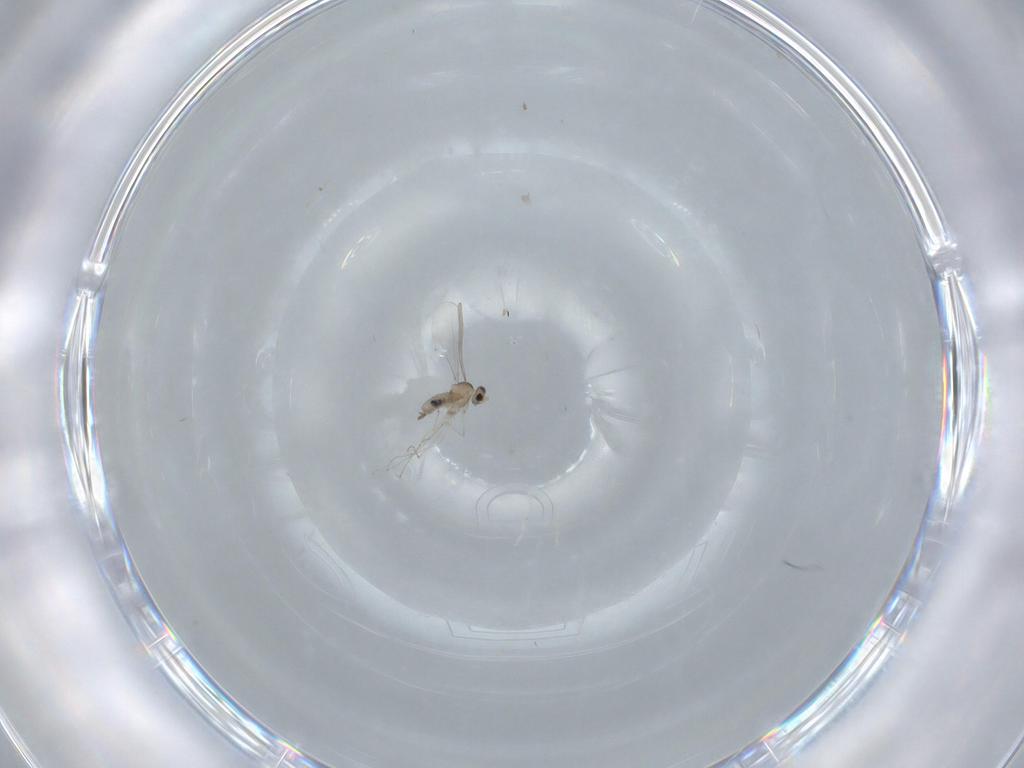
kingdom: Animalia
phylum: Arthropoda
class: Insecta
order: Diptera
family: Cecidomyiidae
